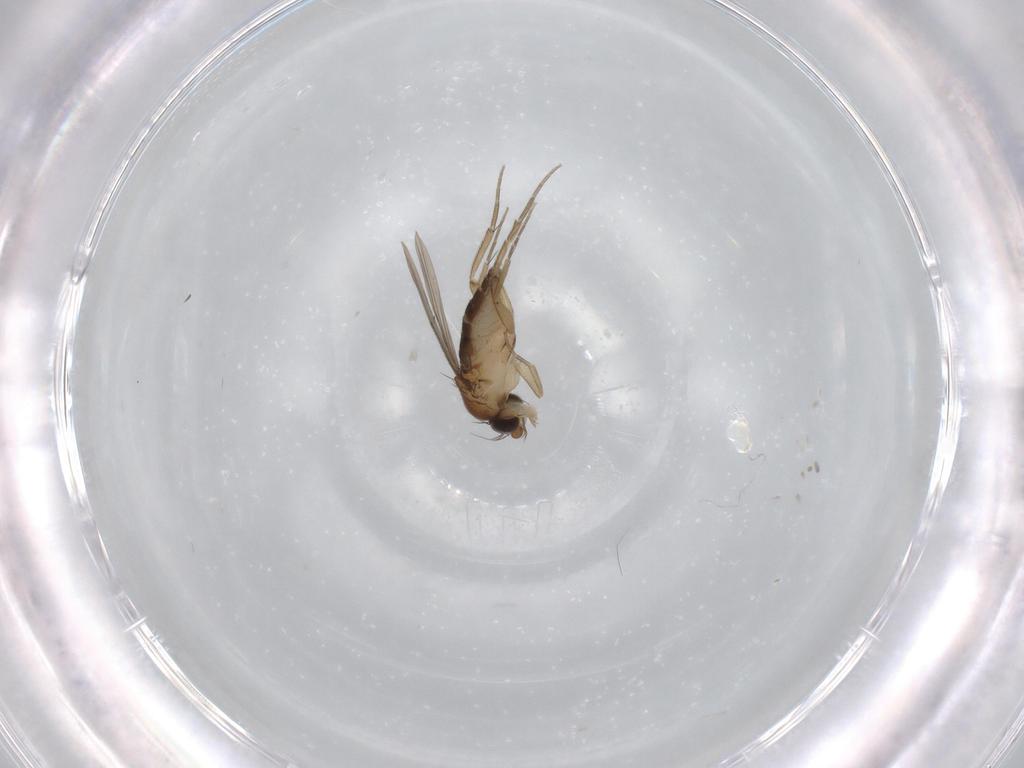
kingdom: Animalia
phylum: Arthropoda
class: Insecta
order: Diptera
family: Phoridae
